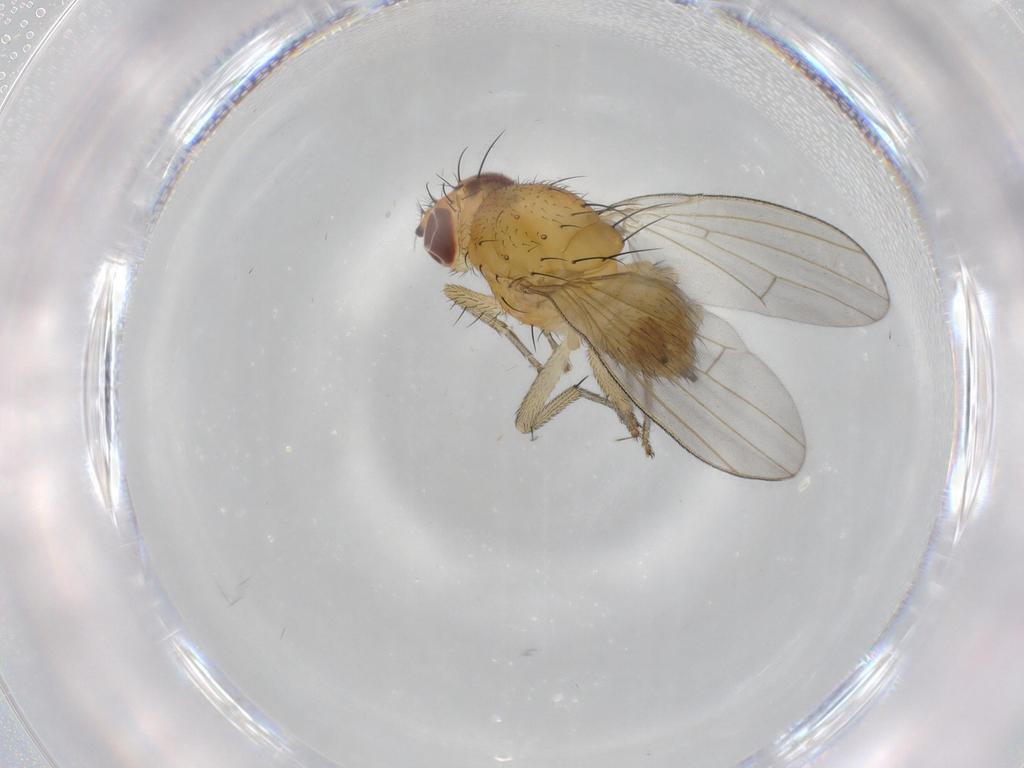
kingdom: Animalia
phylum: Arthropoda
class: Insecta
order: Diptera
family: Lauxaniidae
